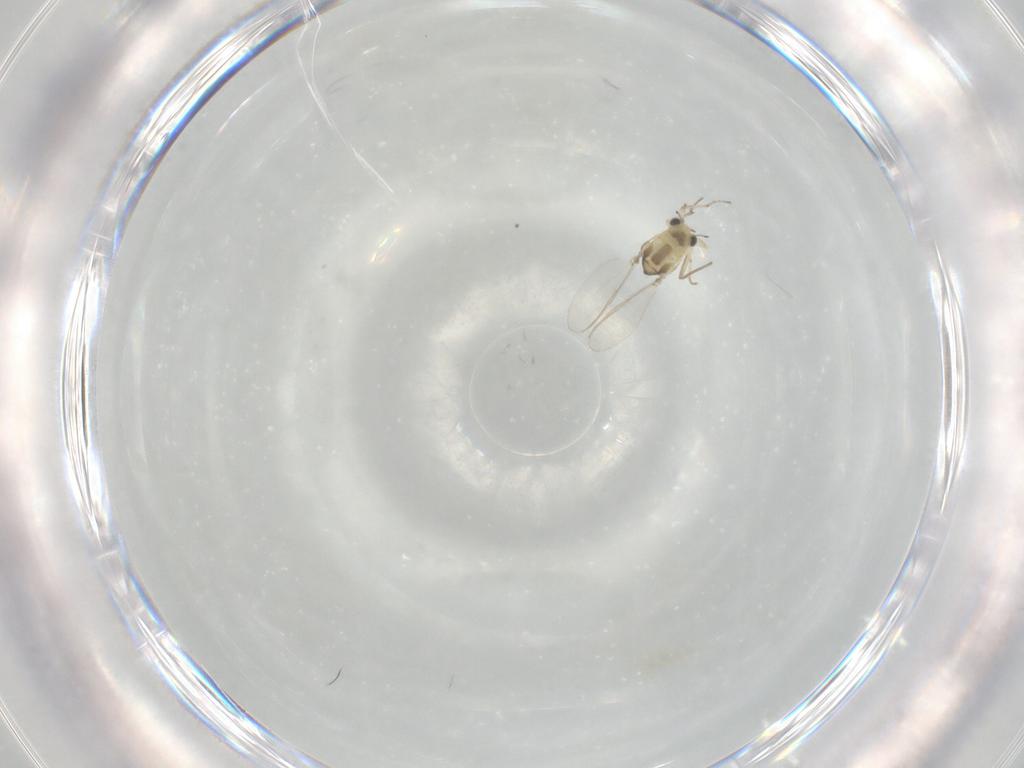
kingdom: Animalia
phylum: Arthropoda
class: Insecta
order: Diptera
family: Chironomidae
